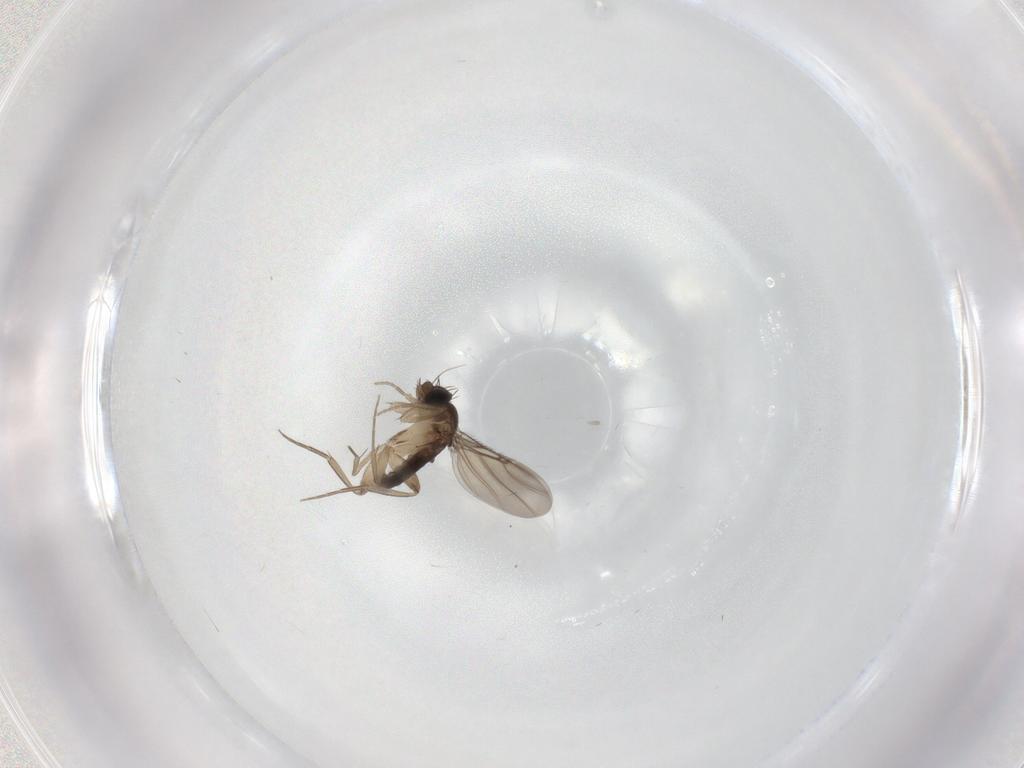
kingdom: Animalia
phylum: Arthropoda
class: Insecta
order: Diptera
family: Phoridae
